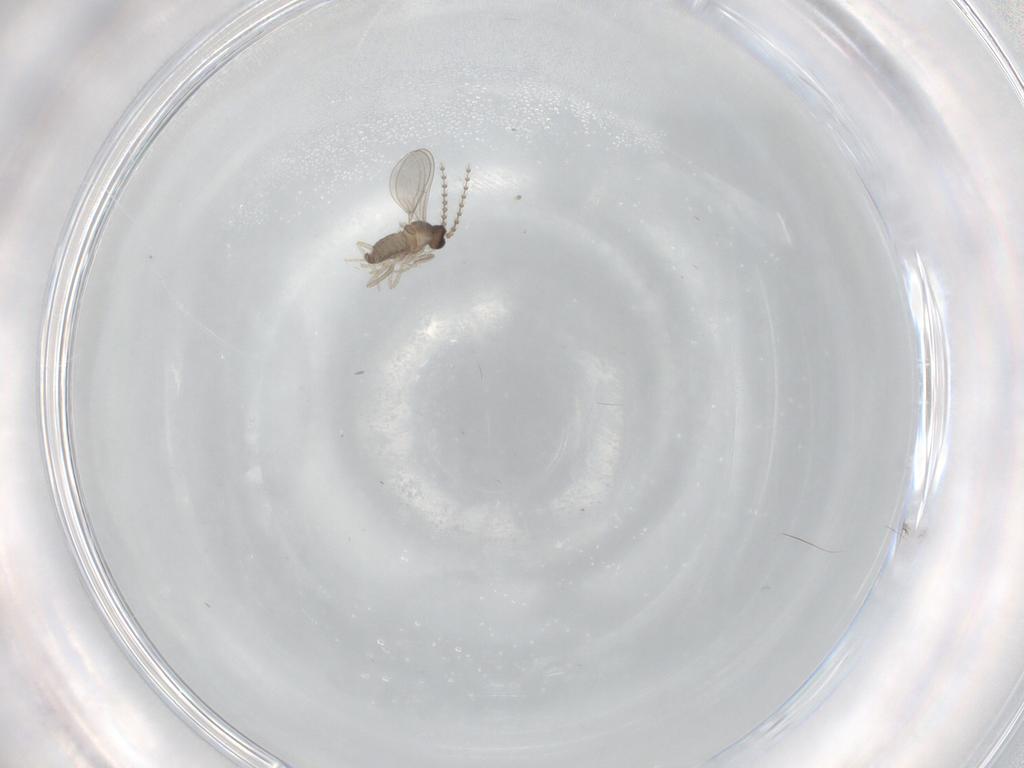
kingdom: Animalia
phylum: Arthropoda
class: Insecta
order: Diptera
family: Cecidomyiidae
